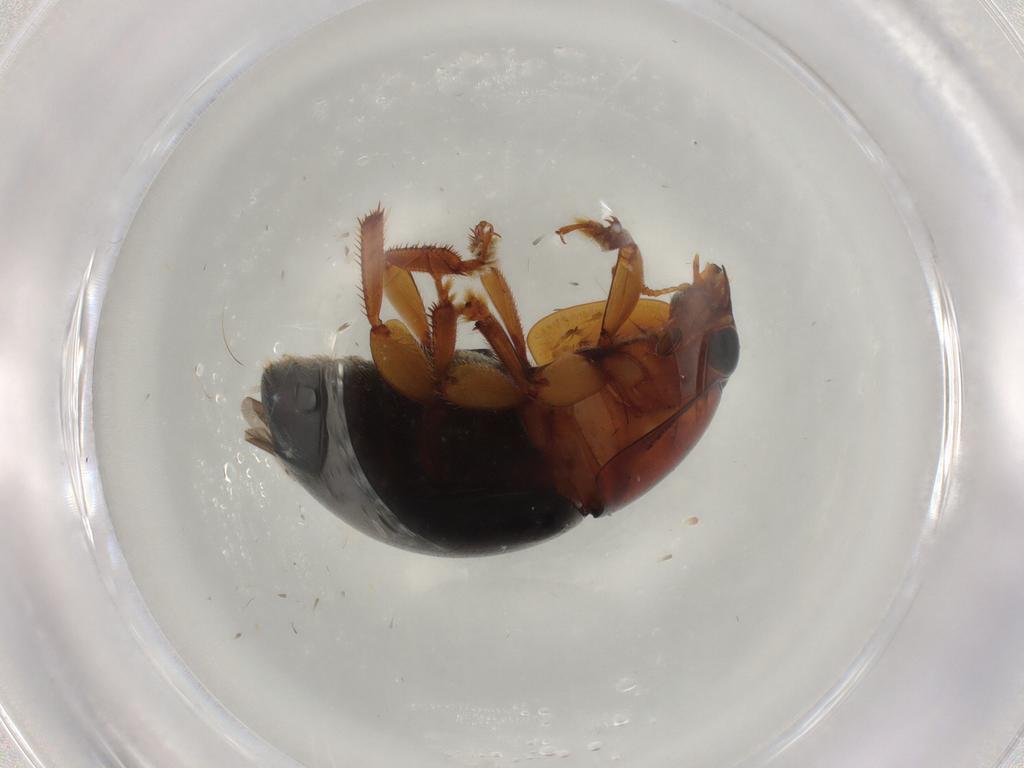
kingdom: Animalia
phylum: Arthropoda
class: Insecta
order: Coleoptera
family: Nitidulidae
